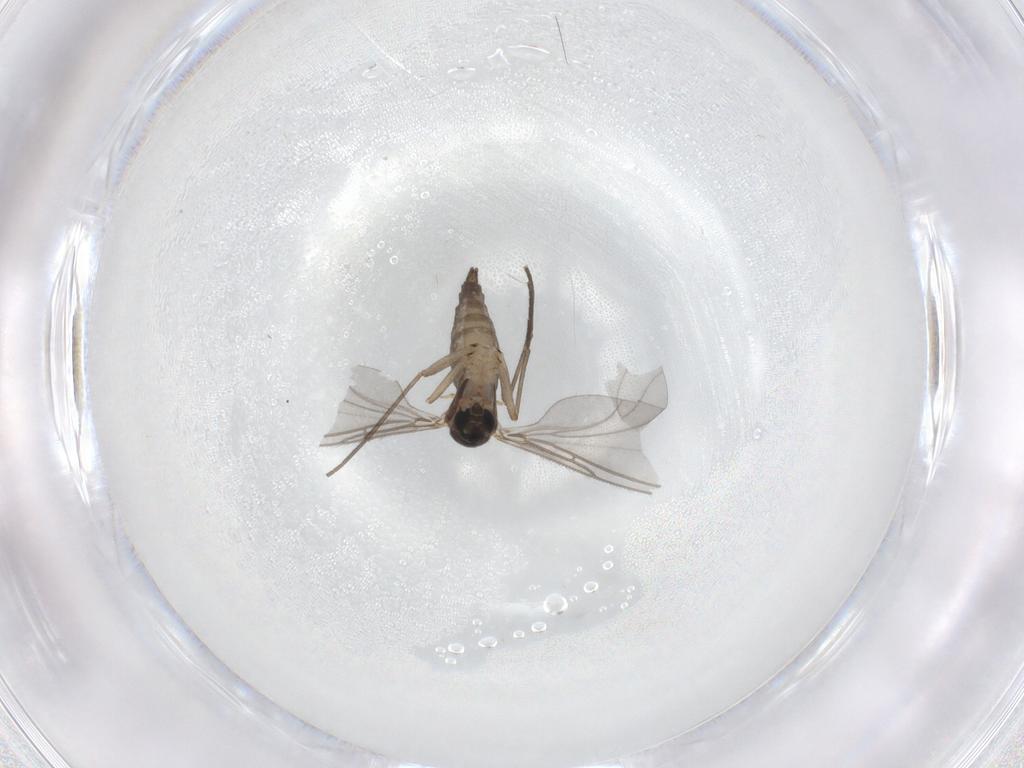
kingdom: Animalia
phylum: Arthropoda
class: Insecta
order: Diptera
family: Sciaridae
